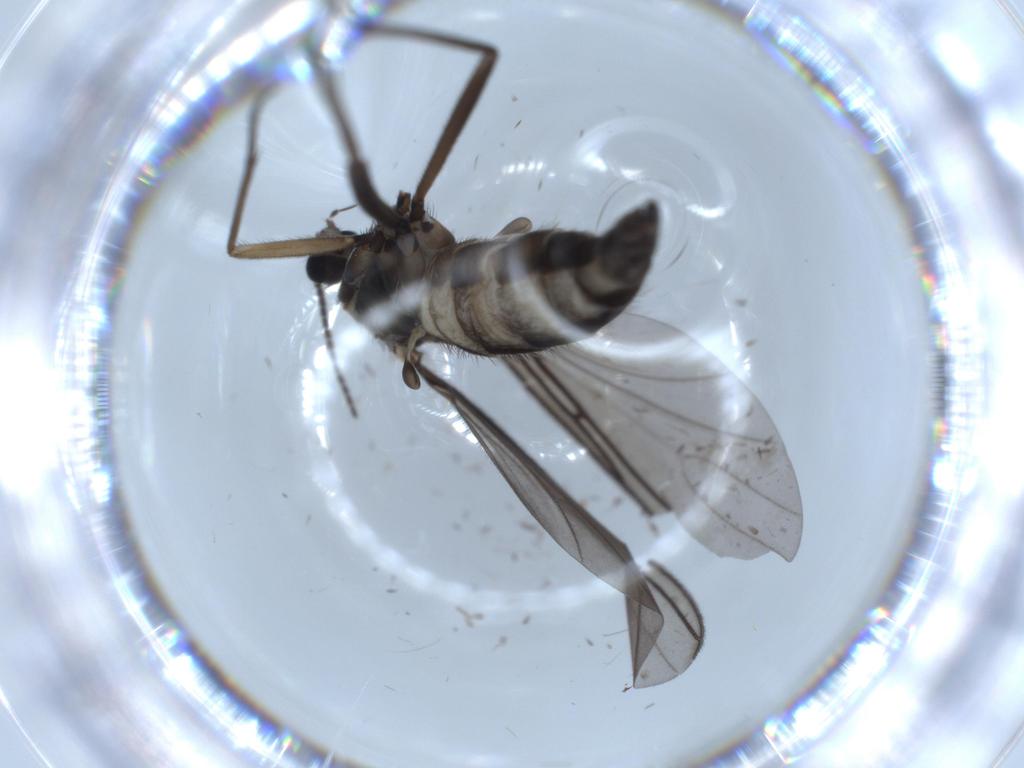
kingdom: Animalia
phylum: Arthropoda
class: Insecta
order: Diptera
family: Sciaridae
